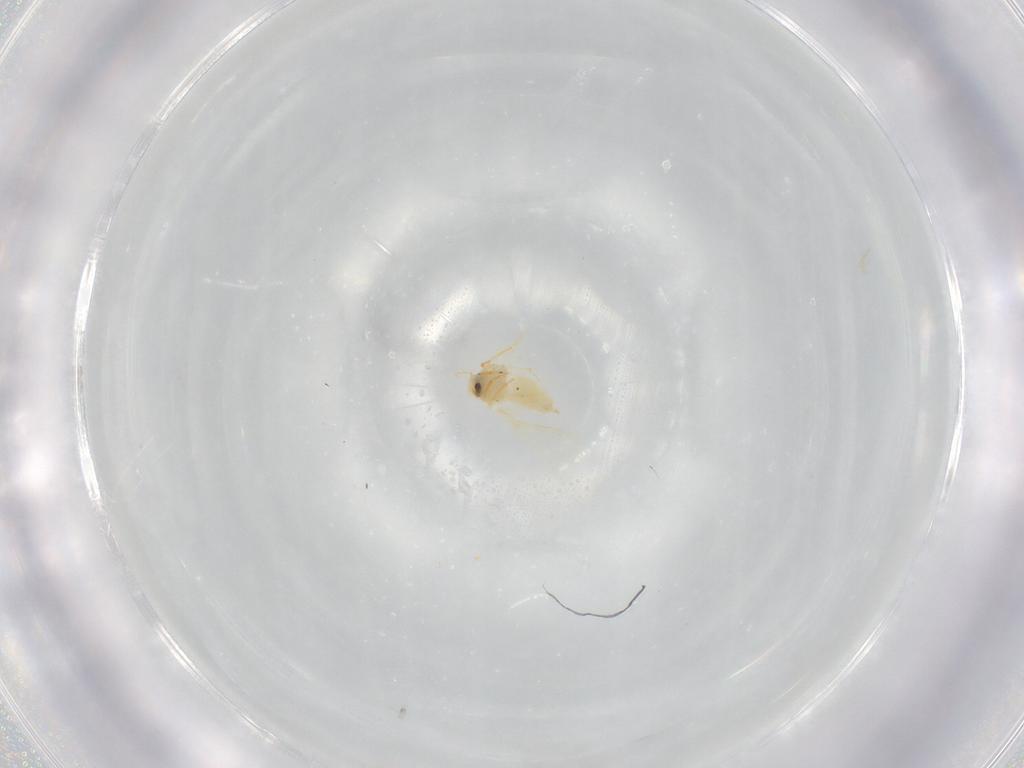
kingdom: Animalia
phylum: Arthropoda
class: Insecta
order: Hemiptera
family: Aleyrodidae
